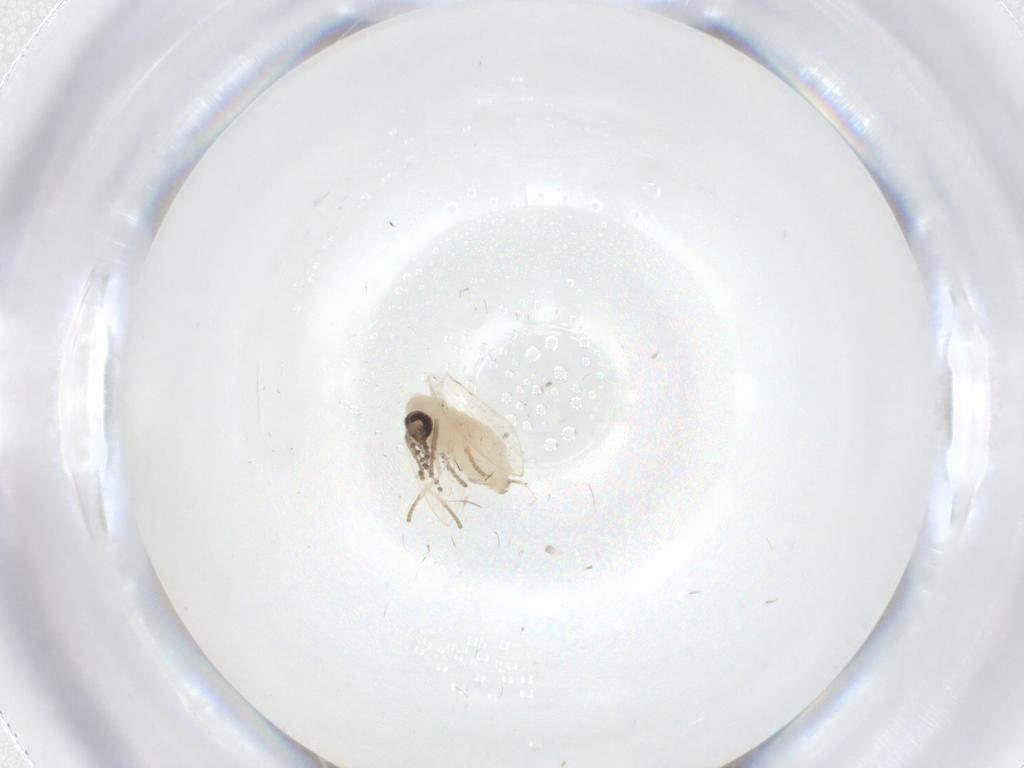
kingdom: Animalia
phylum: Arthropoda
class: Insecta
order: Diptera
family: Psychodidae
